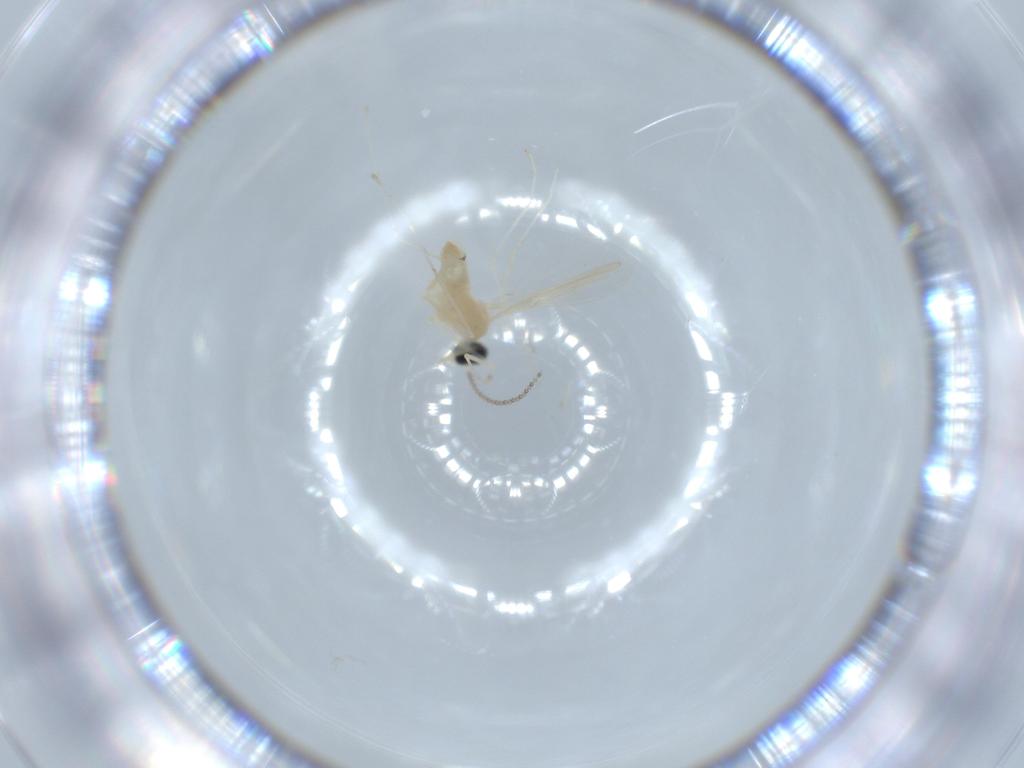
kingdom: Animalia
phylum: Arthropoda
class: Insecta
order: Diptera
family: Cecidomyiidae
